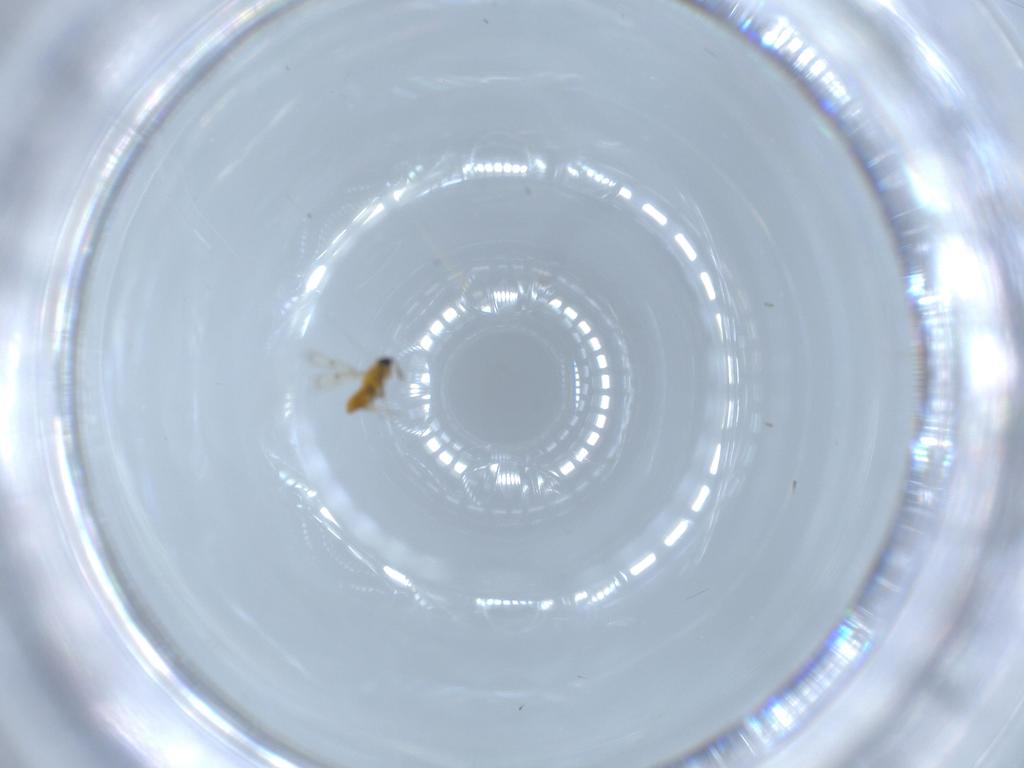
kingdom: Animalia
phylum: Arthropoda
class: Insecta
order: Hymenoptera
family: Trichogrammatidae
